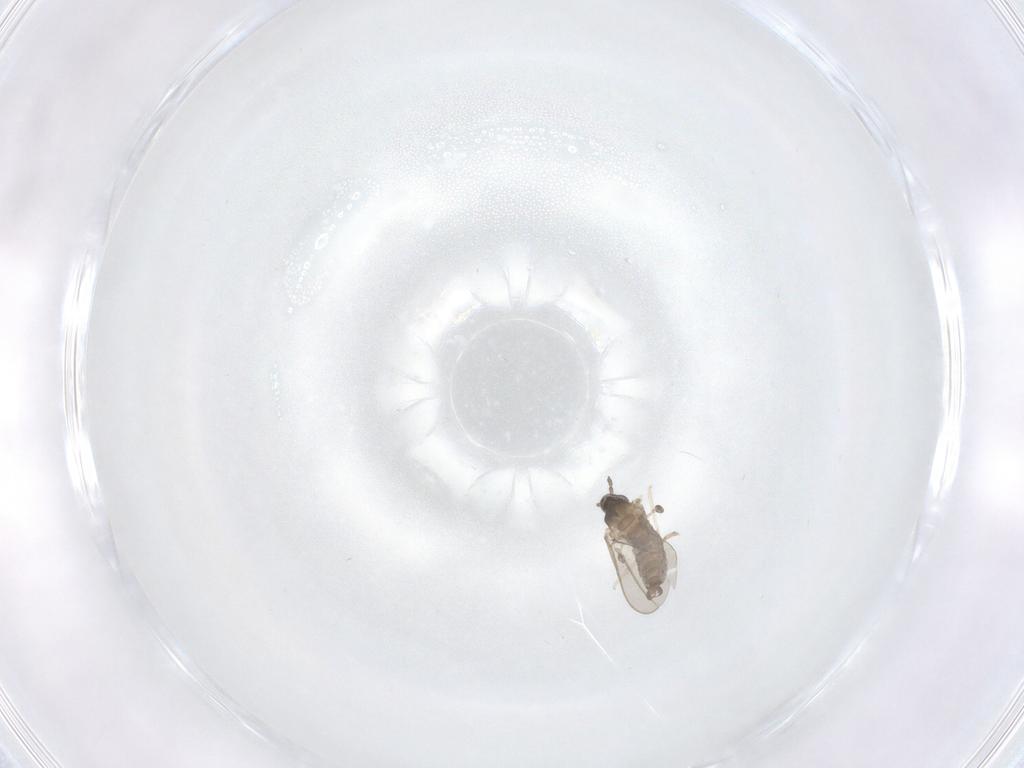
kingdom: Animalia
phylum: Arthropoda
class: Insecta
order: Diptera
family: Phoridae
